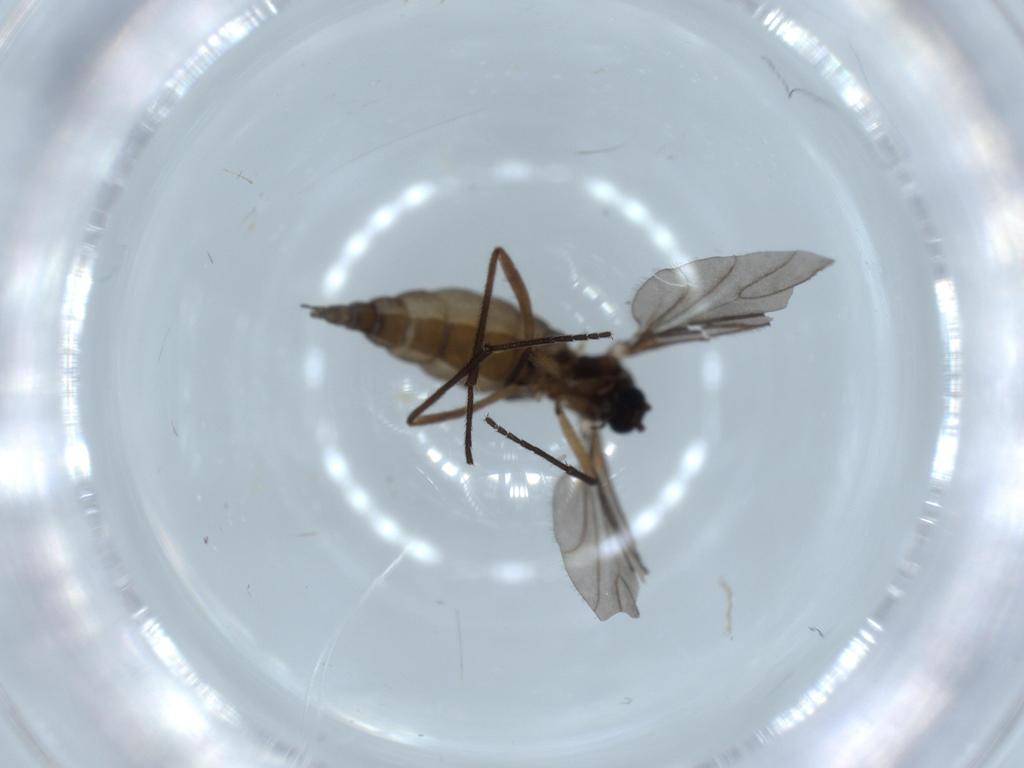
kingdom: Animalia
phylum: Arthropoda
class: Insecta
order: Diptera
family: Sciaridae
